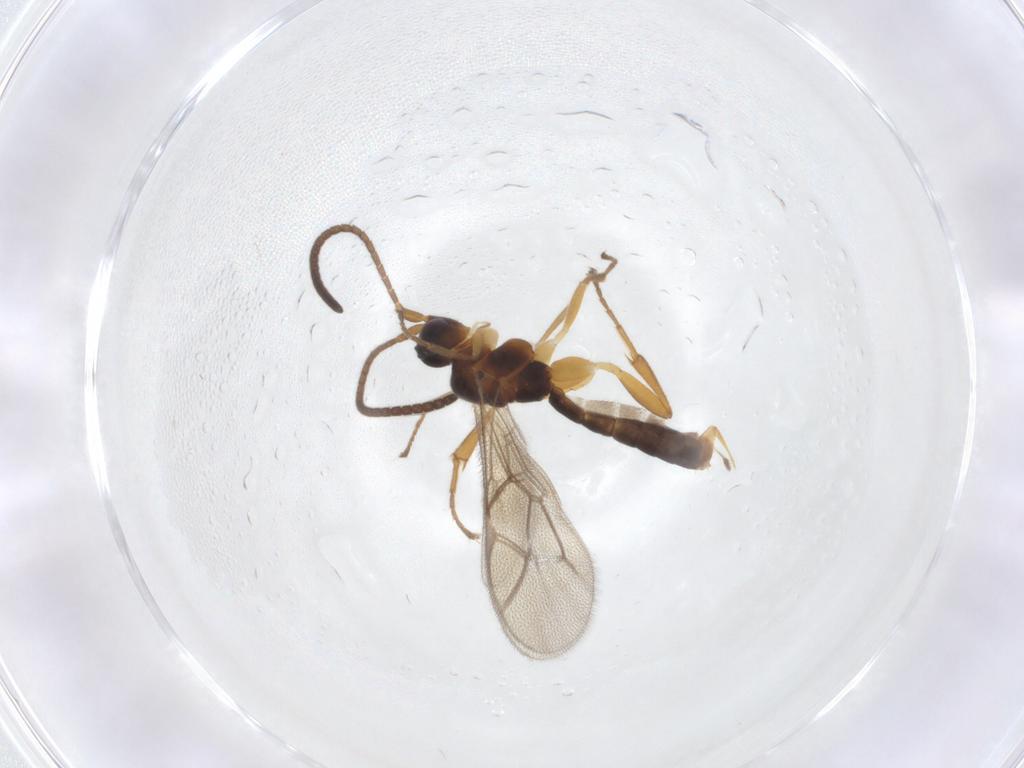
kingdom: Animalia
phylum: Arthropoda
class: Insecta
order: Hymenoptera
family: Ichneumonidae
